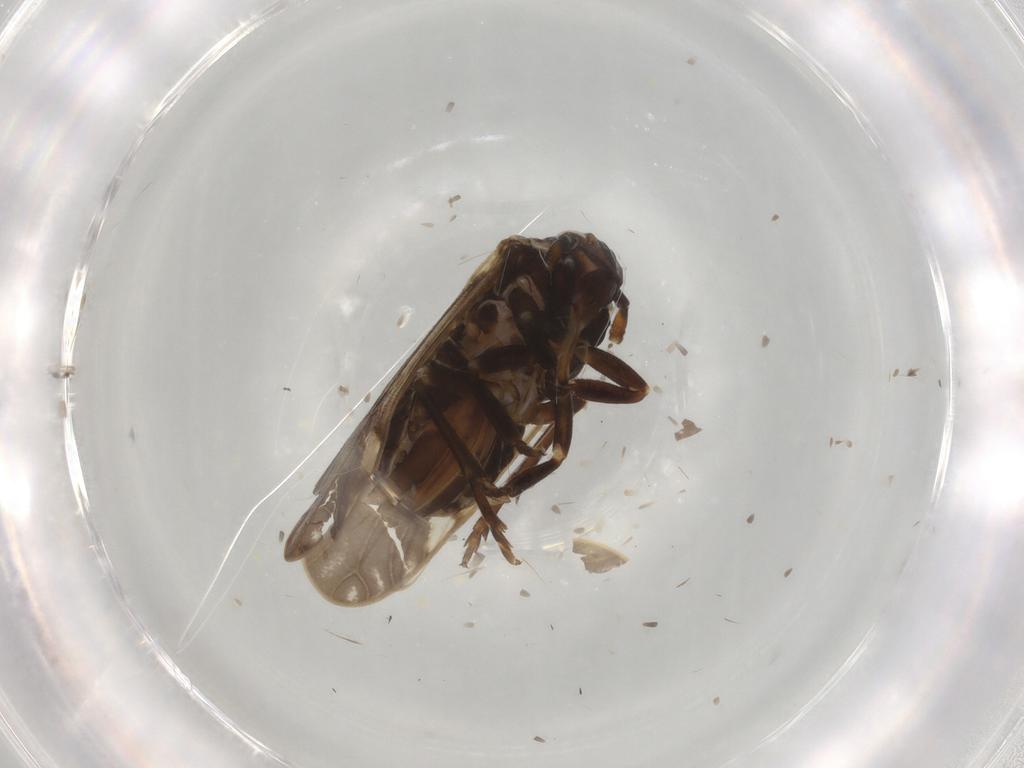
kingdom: Animalia
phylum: Arthropoda
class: Insecta
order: Hemiptera
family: Delphacidae
